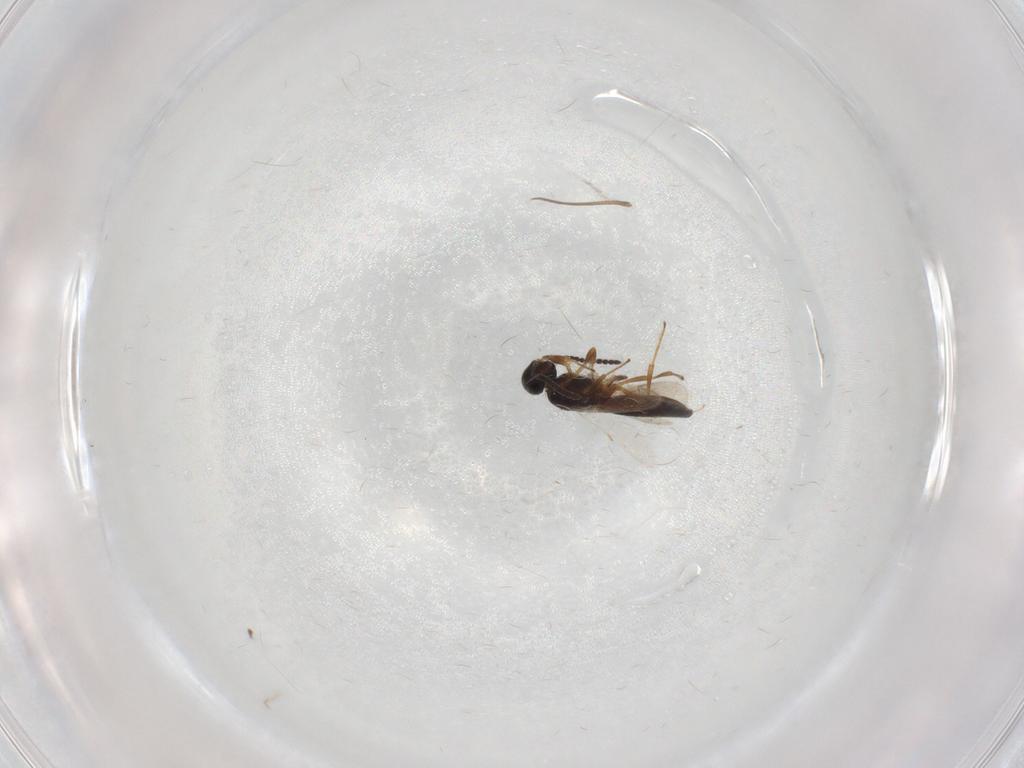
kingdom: Animalia
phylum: Arthropoda
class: Insecta
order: Hymenoptera
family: Scelionidae
